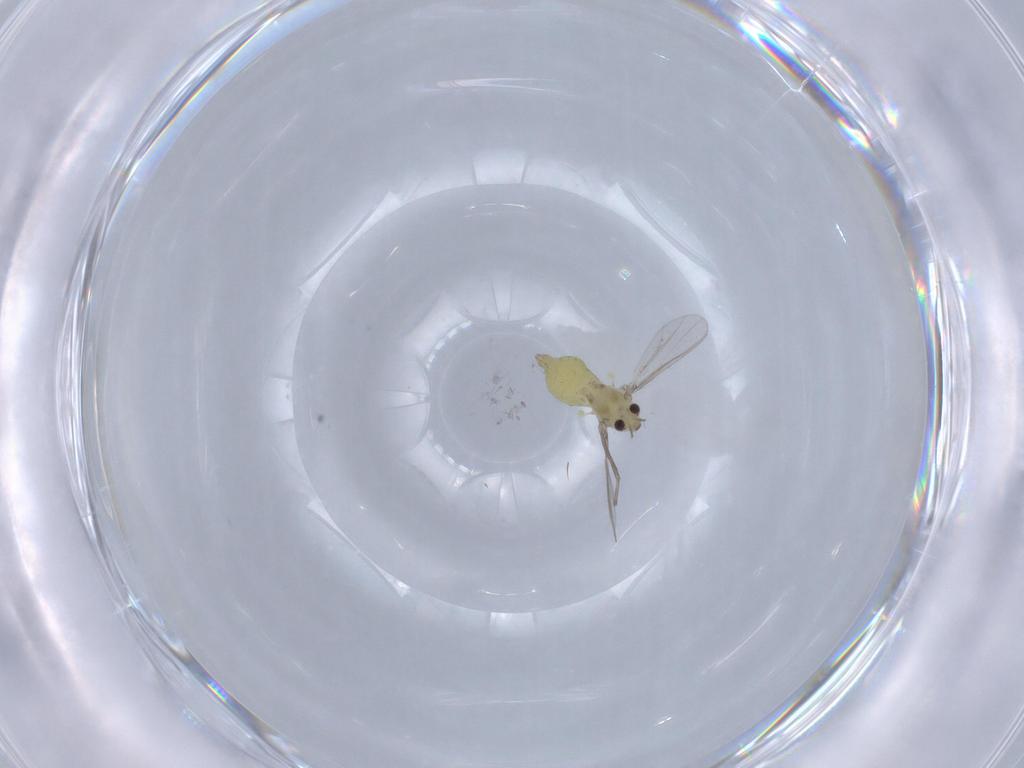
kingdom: Animalia
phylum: Arthropoda
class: Insecta
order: Diptera
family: Chironomidae
